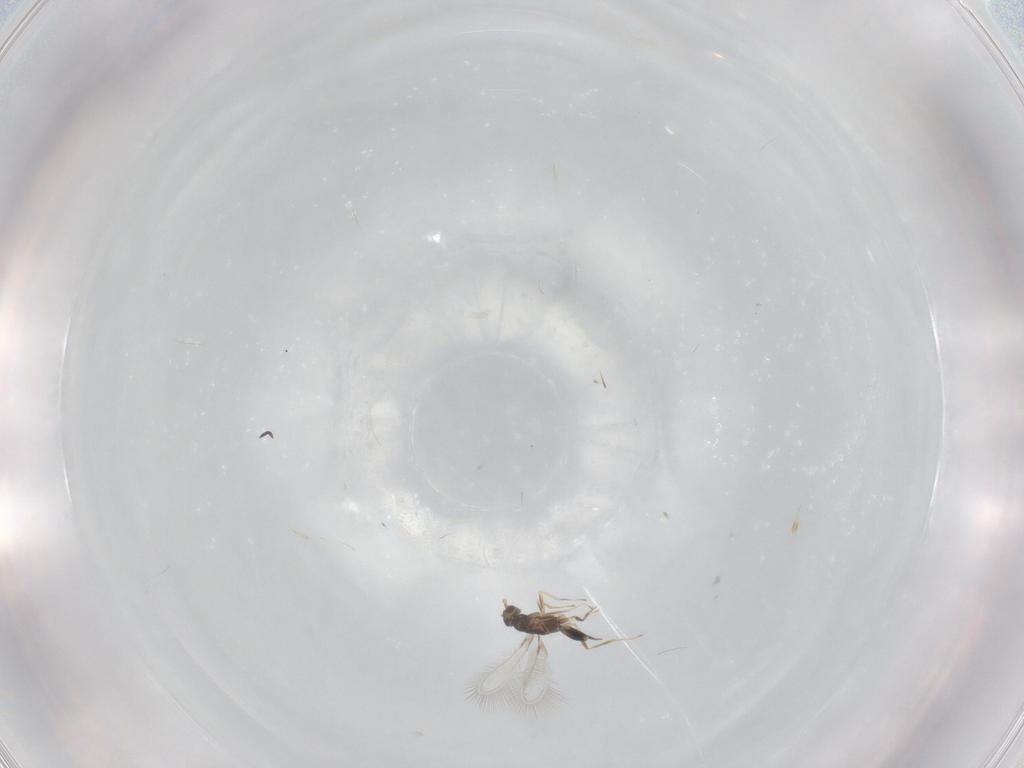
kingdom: Animalia
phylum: Arthropoda
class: Insecta
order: Hymenoptera
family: Mymaridae
